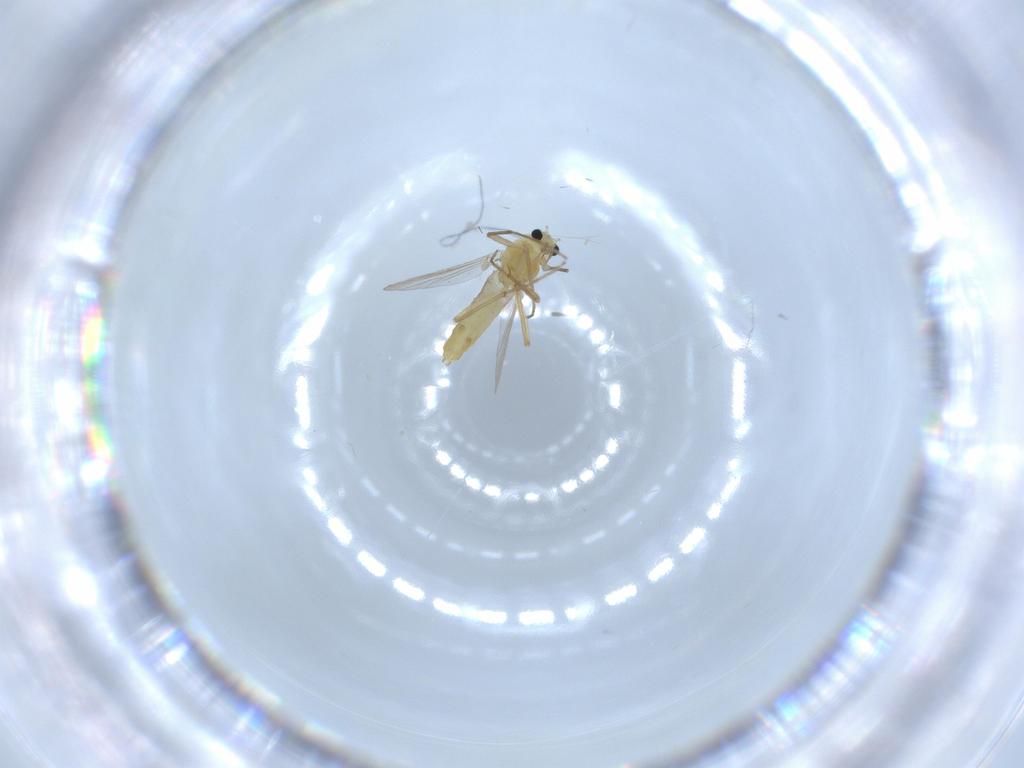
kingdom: Animalia
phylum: Arthropoda
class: Insecta
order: Diptera
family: Chironomidae
